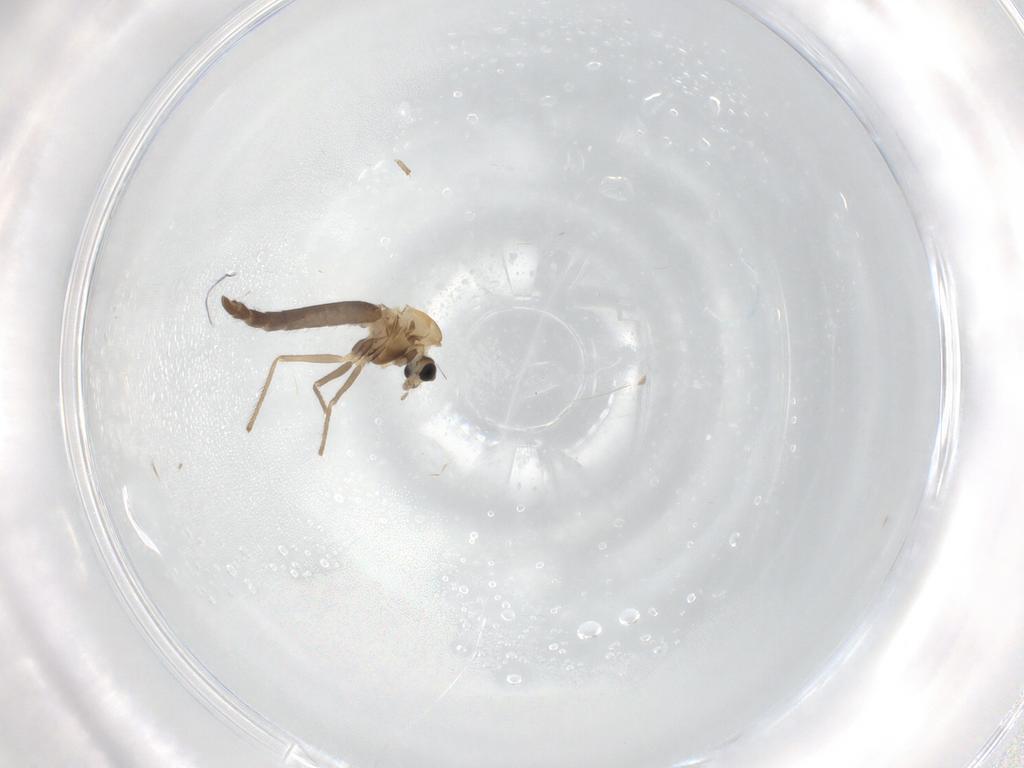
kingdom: Animalia
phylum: Arthropoda
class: Insecta
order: Diptera
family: Chironomidae
